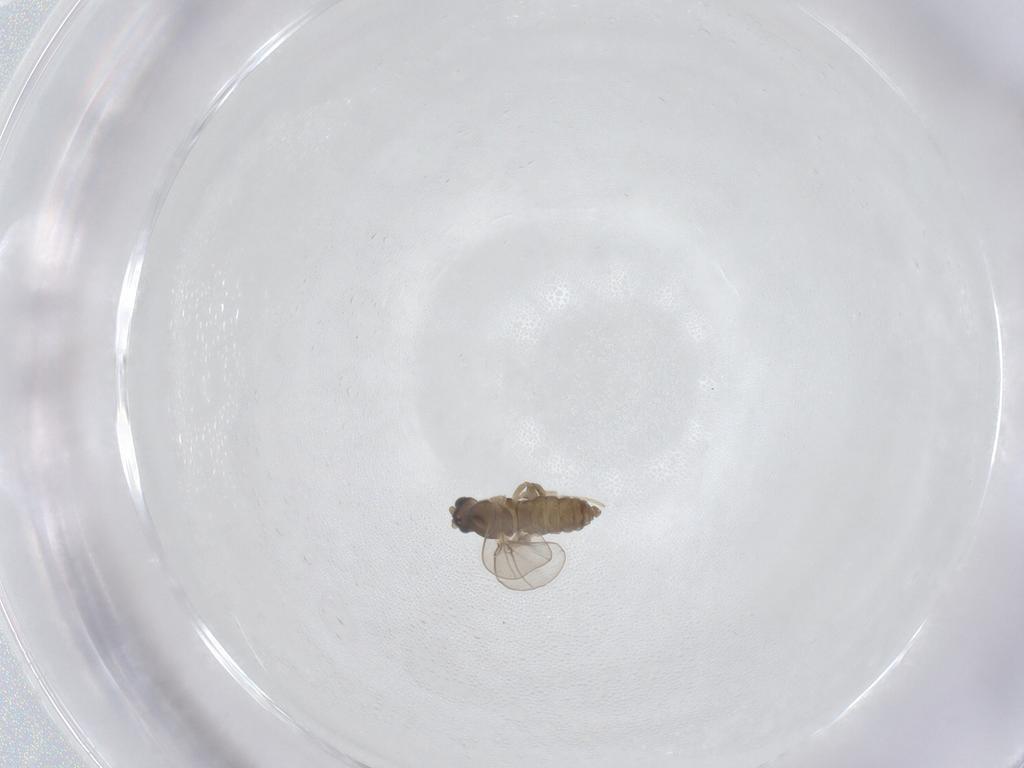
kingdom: Animalia
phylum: Arthropoda
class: Insecta
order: Diptera
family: Cecidomyiidae
